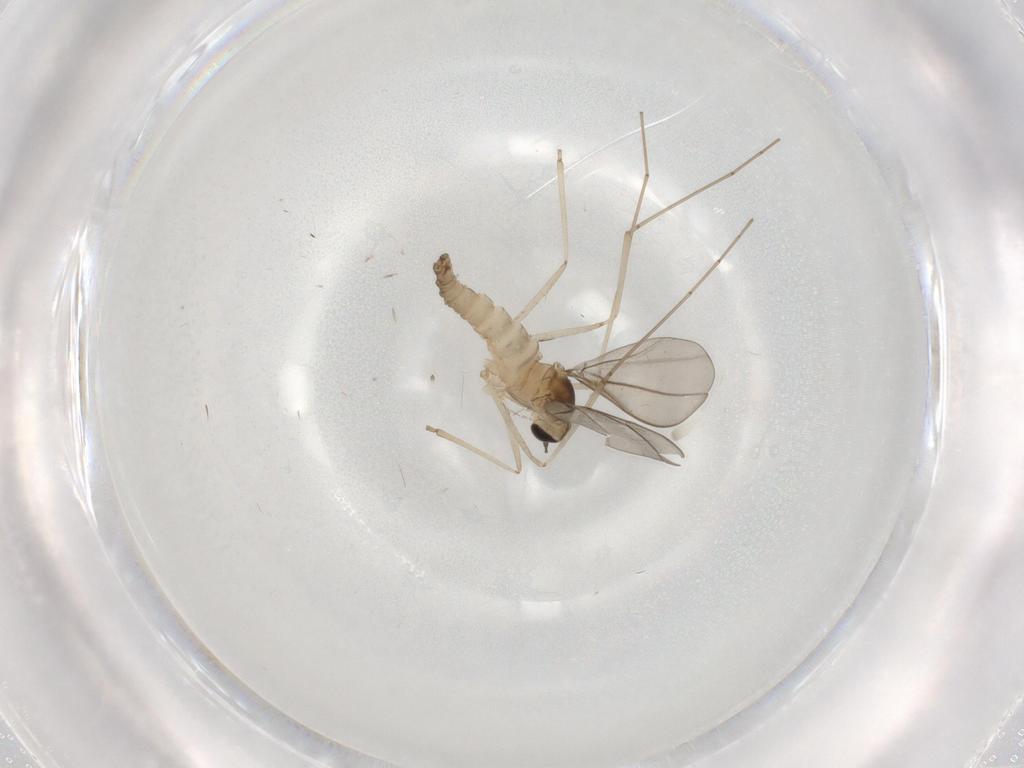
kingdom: Animalia
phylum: Arthropoda
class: Insecta
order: Diptera
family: Cecidomyiidae
